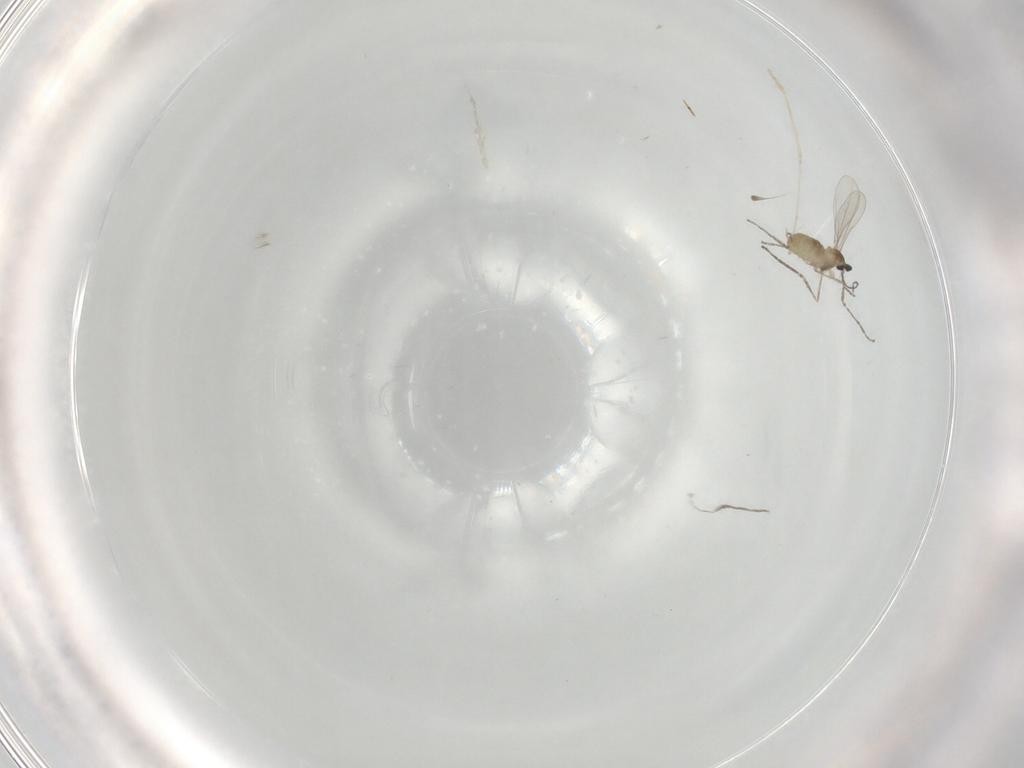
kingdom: Animalia
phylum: Arthropoda
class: Insecta
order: Diptera
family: Cecidomyiidae
